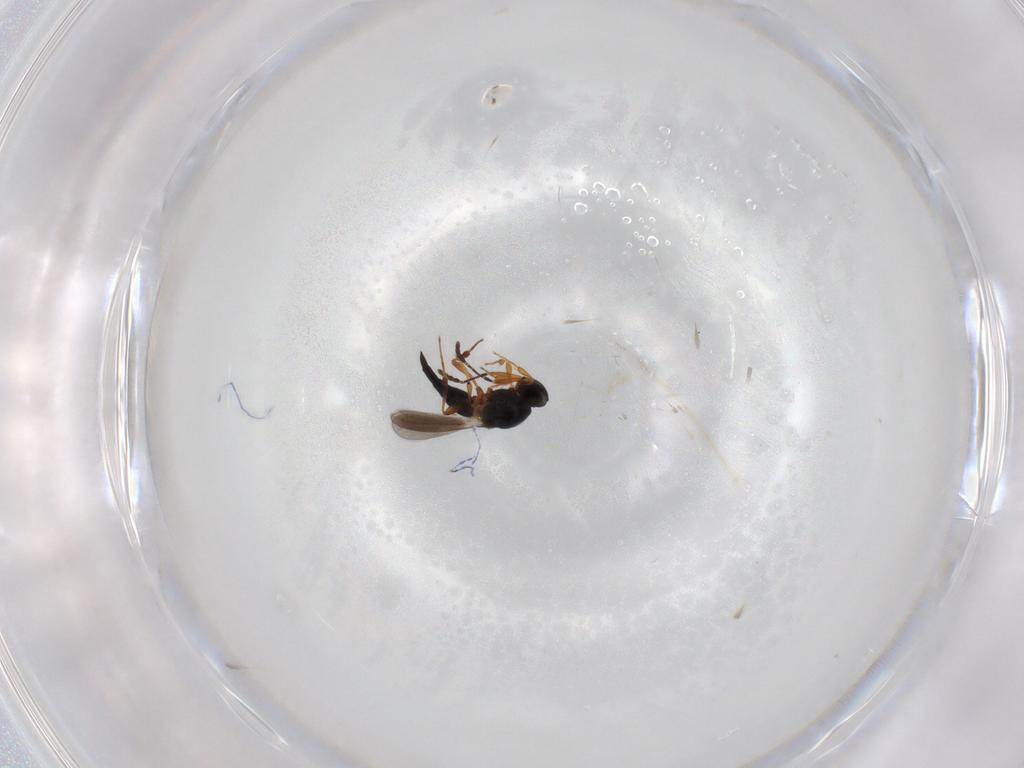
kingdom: Animalia
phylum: Arthropoda
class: Insecta
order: Hymenoptera
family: Platygastridae
